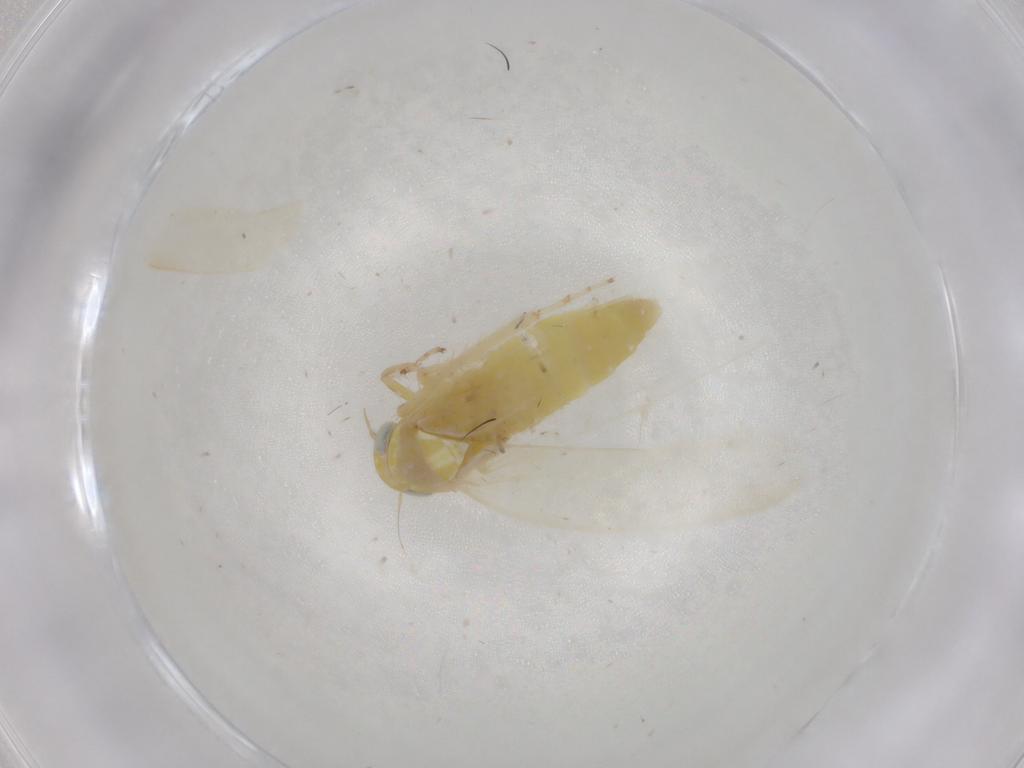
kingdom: Animalia
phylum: Arthropoda
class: Insecta
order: Hemiptera
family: Cicadellidae
